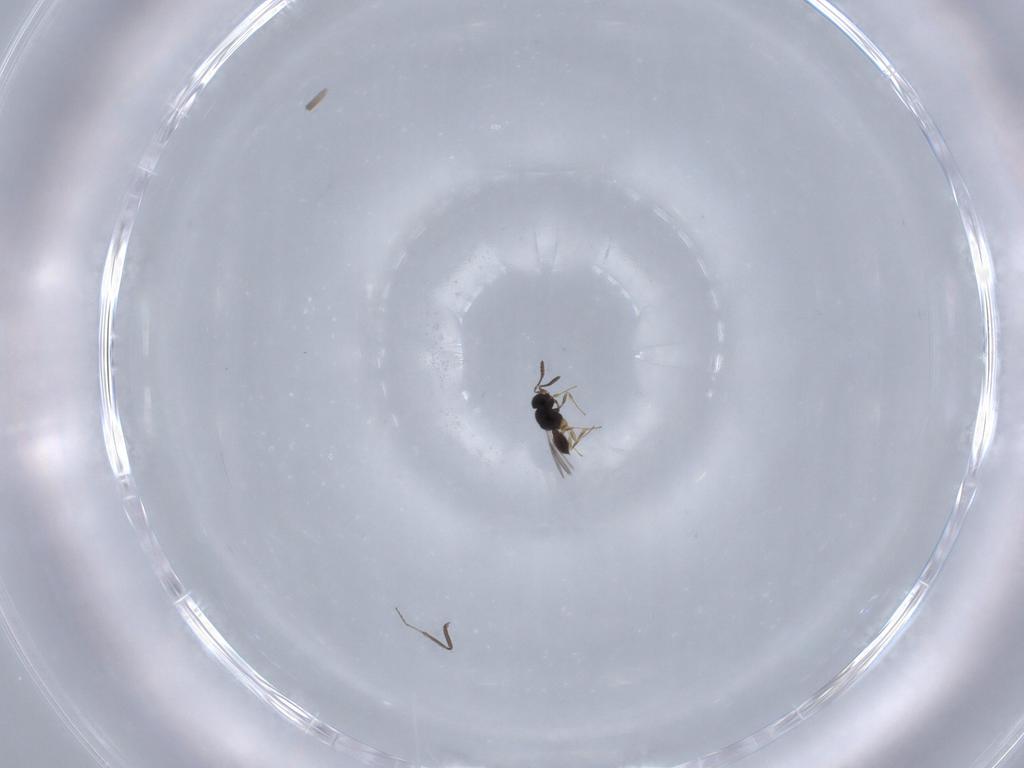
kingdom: Animalia
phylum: Arthropoda
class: Insecta
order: Hymenoptera
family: Scelionidae
